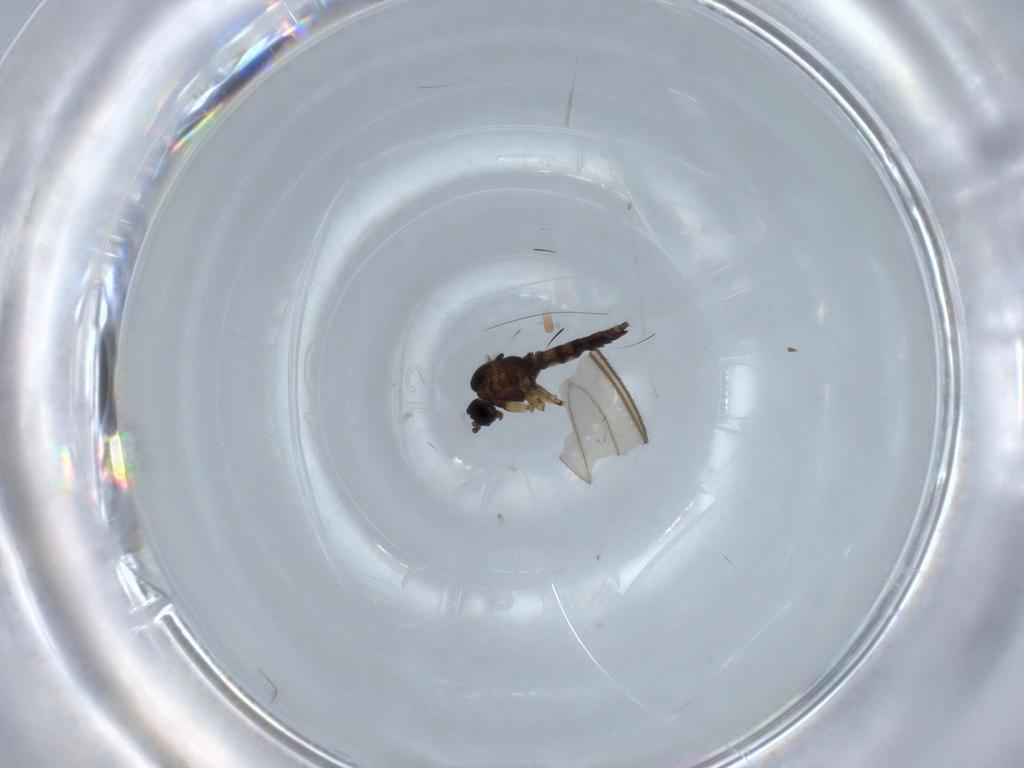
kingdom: Animalia
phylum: Arthropoda
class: Insecta
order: Diptera
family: Sciaridae
